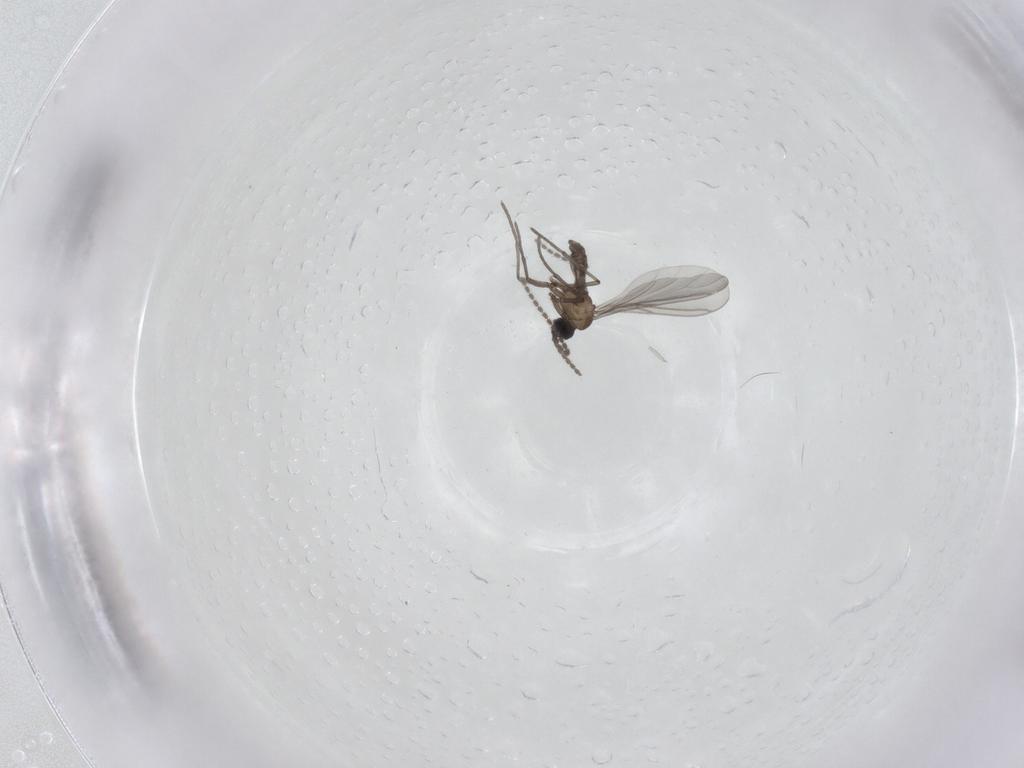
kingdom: Animalia
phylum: Arthropoda
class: Insecta
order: Diptera
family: Sciaridae
